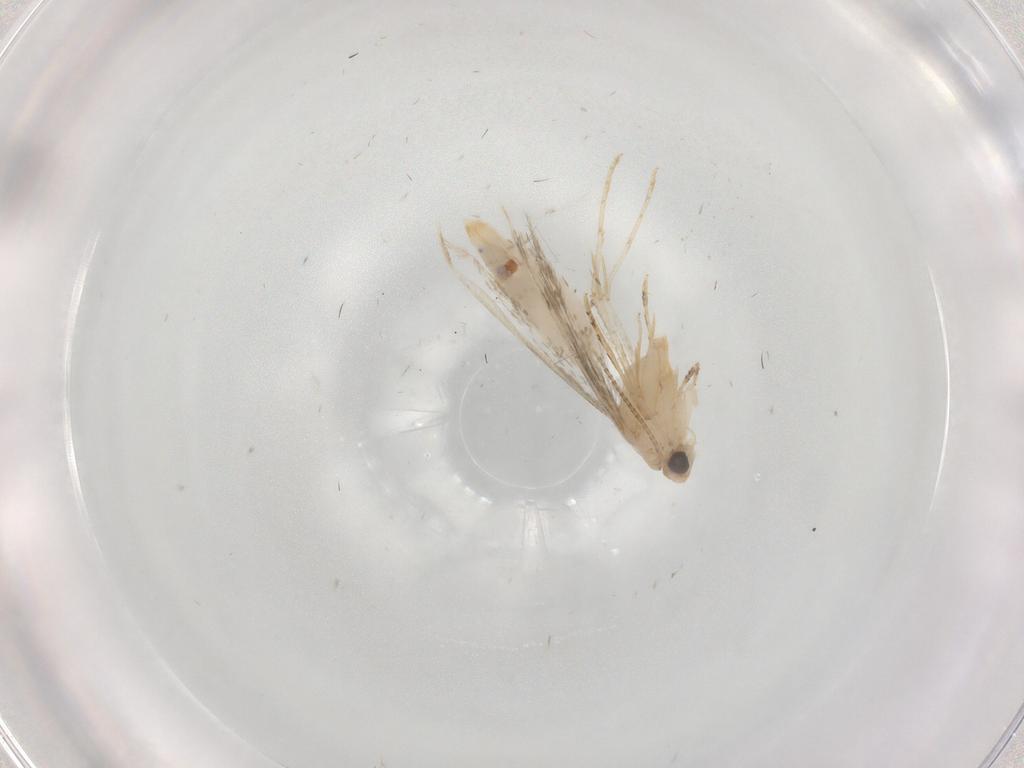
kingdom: Animalia
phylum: Arthropoda
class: Insecta
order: Lepidoptera
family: Tineidae
